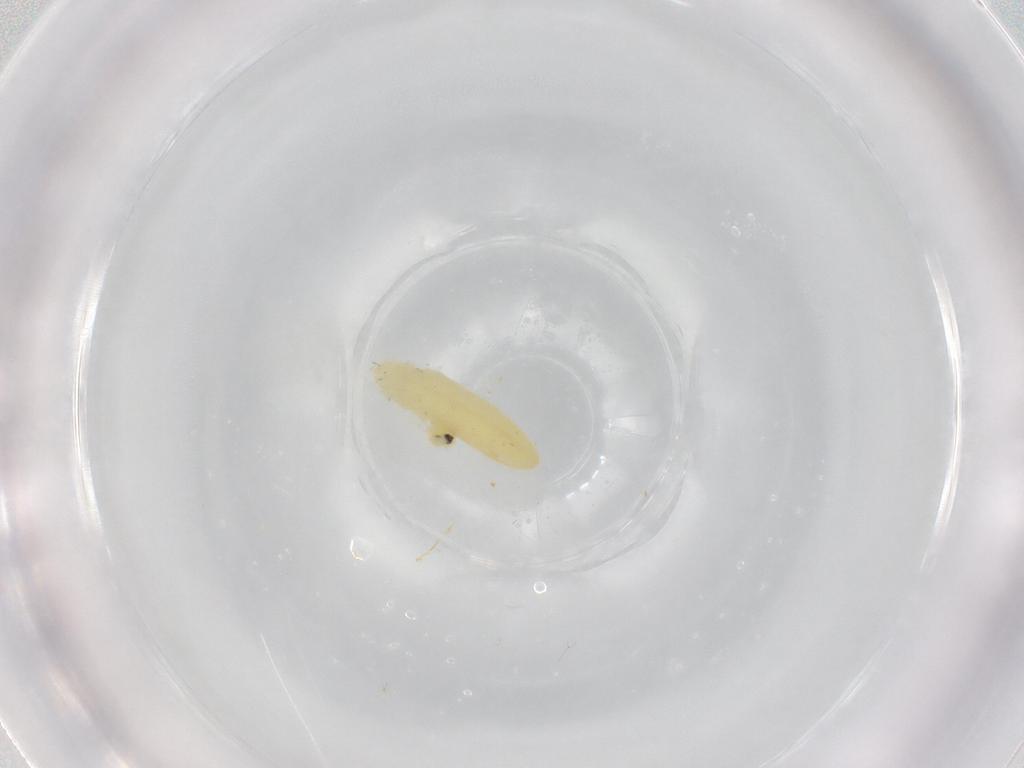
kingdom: Animalia
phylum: Arthropoda
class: Insecta
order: Diptera
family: Muscidae
